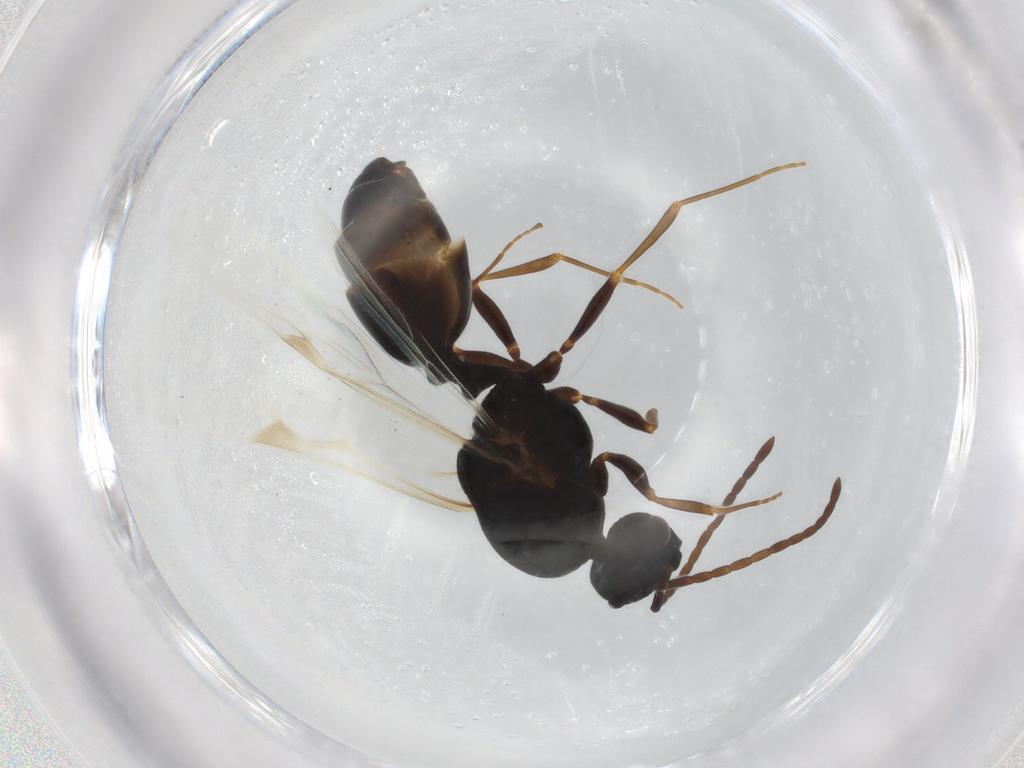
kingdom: Animalia
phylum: Arthropoda
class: Insecta
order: Hymenoptera
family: Formicidae
